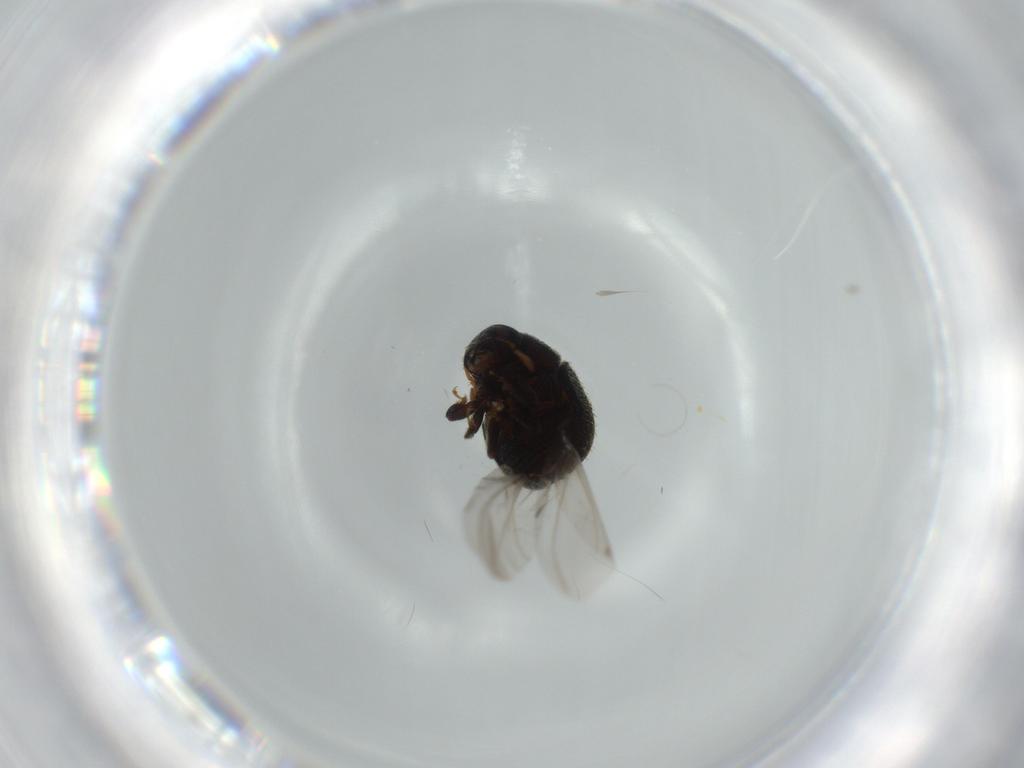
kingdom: Animalia
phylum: Arthropoda
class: Insecta
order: Coleoptera
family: Curculionidae
